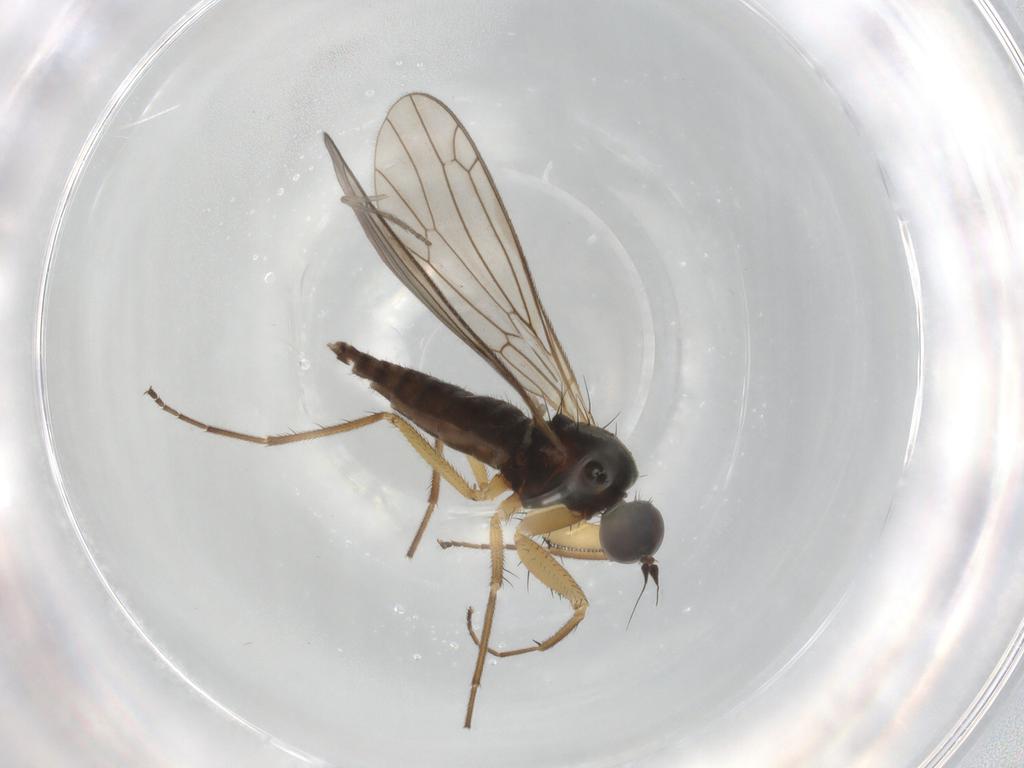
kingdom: Animalia
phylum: Arthropoda
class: Insecta
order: Diptera
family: Empididae
